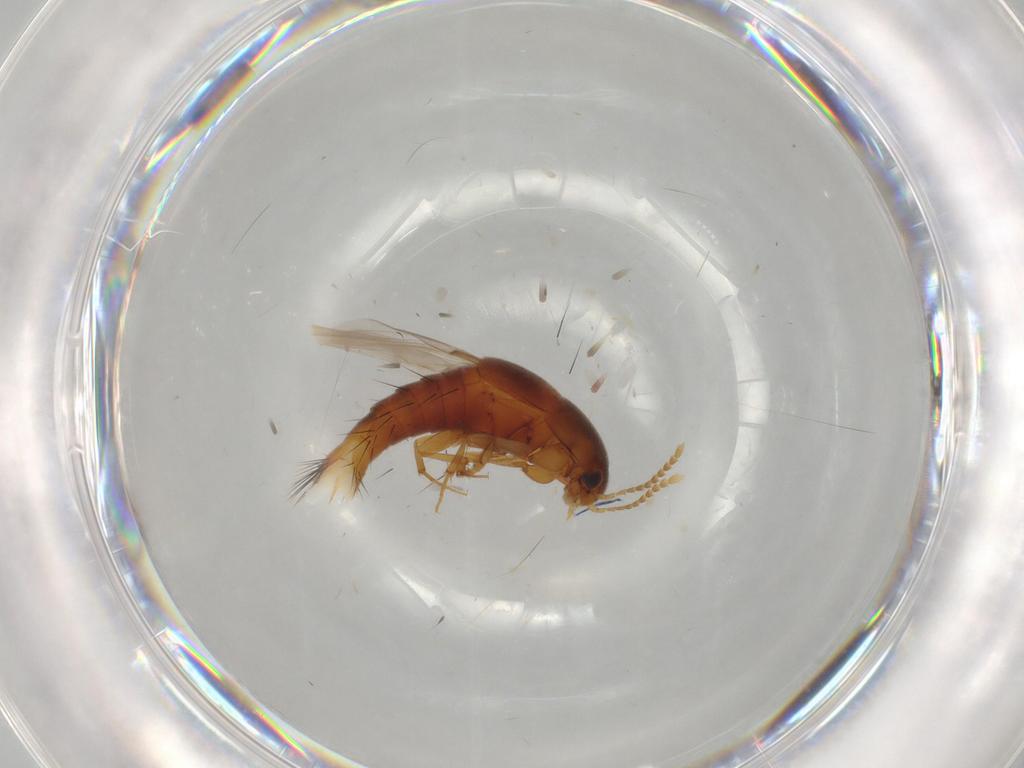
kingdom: Animalia
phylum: Arthropoda
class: Insecta
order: Coleoptera
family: Staphylinidae
